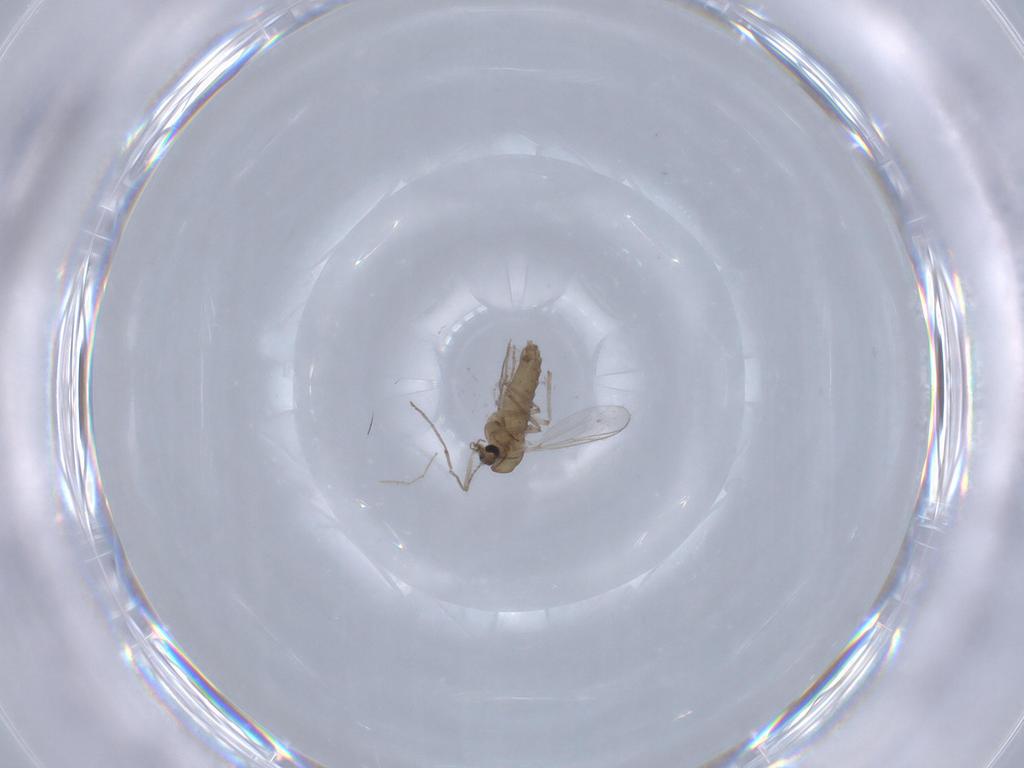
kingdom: Animalia
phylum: Arthropoda
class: Insecta
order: Diptera
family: Chironomidae
